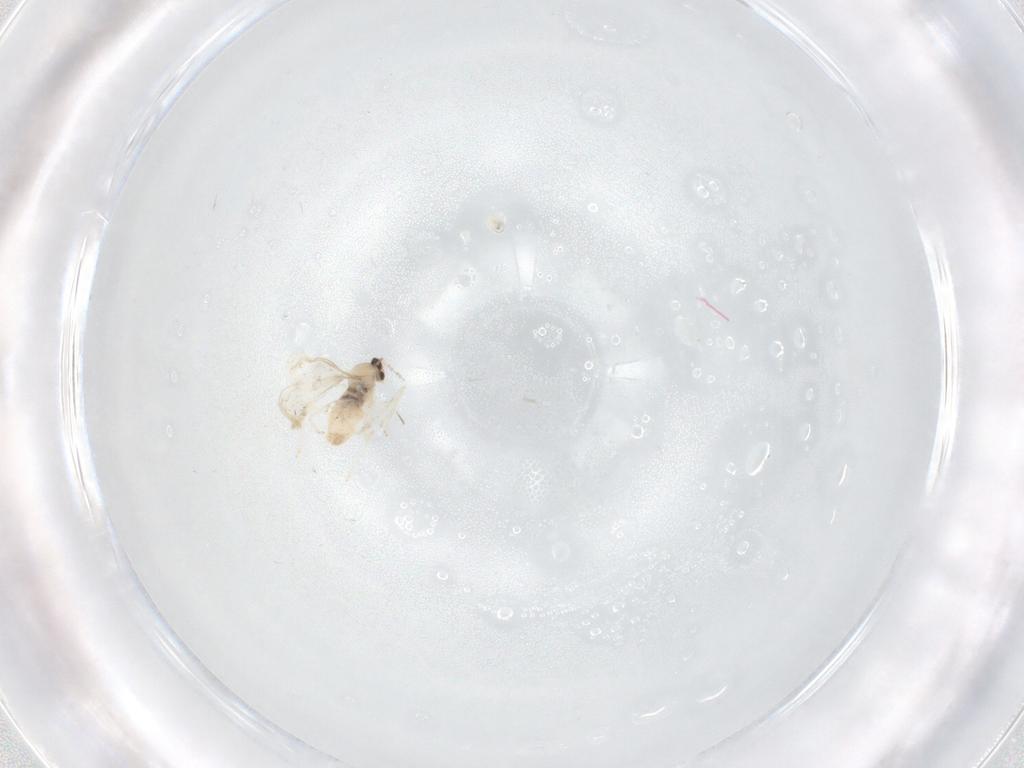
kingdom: Animalia
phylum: Arthropoda
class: Insecta
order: Diptera
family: Cecidomyiidae
